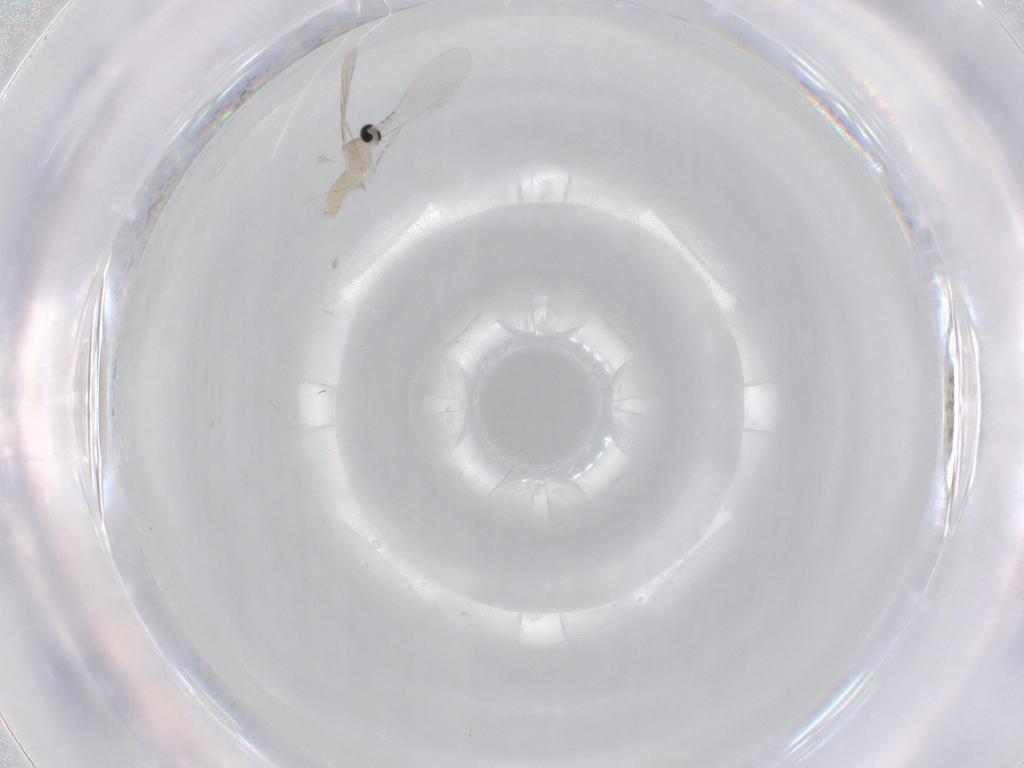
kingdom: Animalia
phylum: Arthropoda
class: Insecta
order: Diptera
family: Cecidomyiidae
